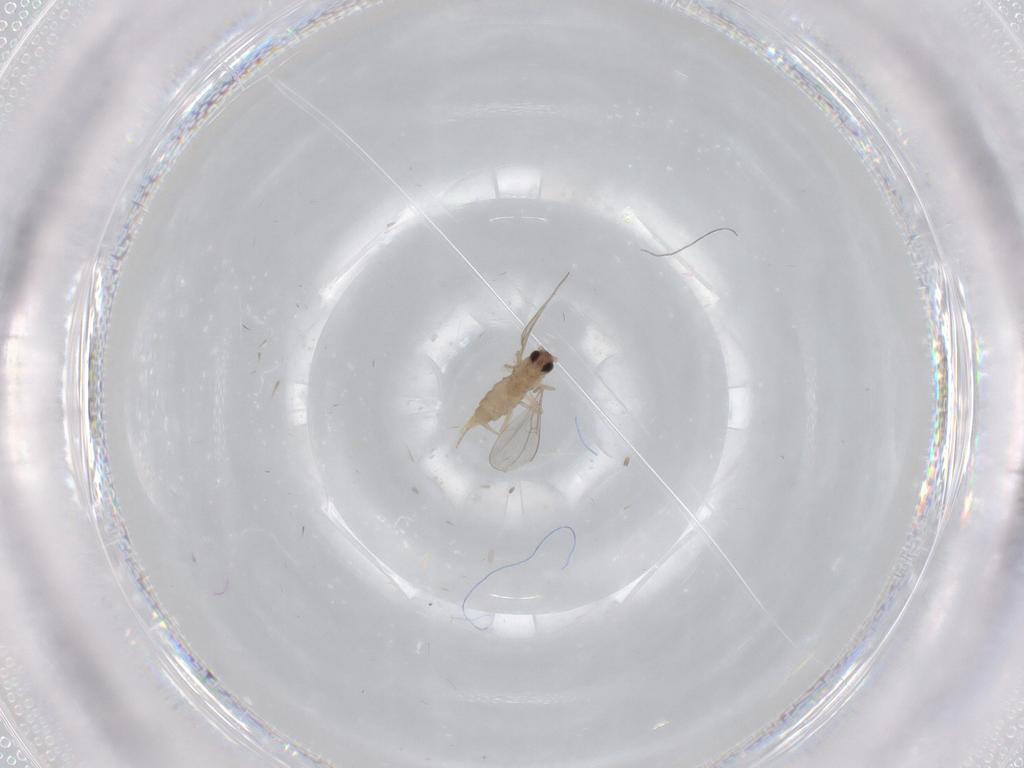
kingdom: Animalia
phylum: Arthropoda
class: Insecta
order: Diptera
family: Cecidomyiidae
